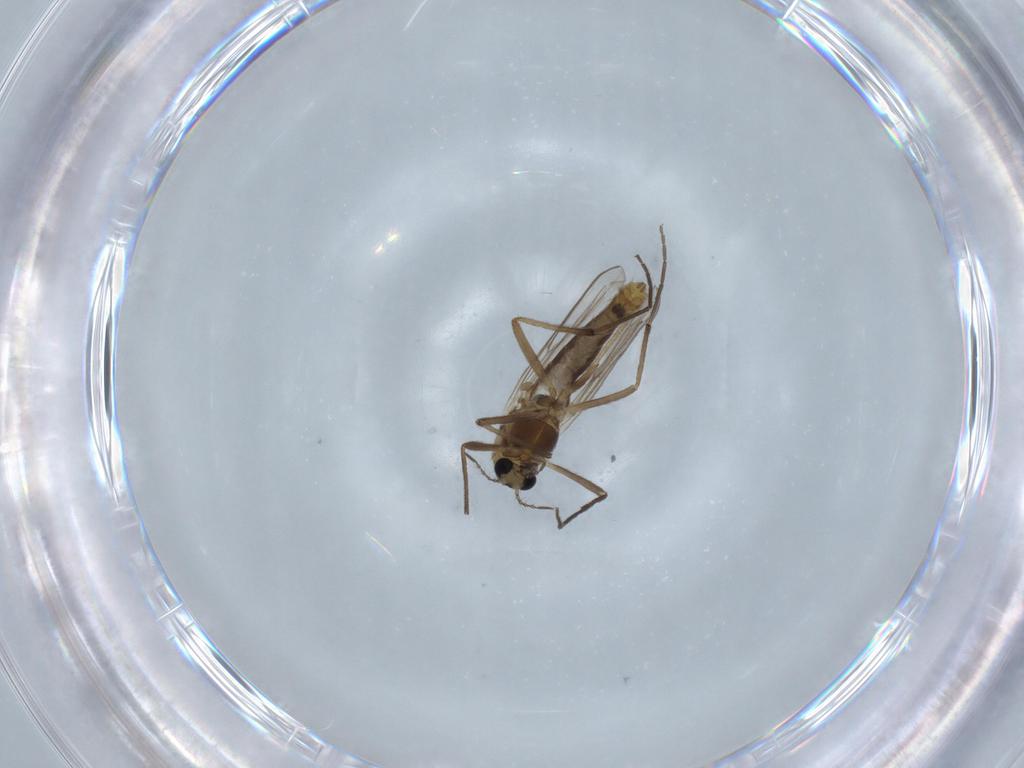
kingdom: Animalia
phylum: Arthropoda
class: Insecta
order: Diptera
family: Chironomidae
